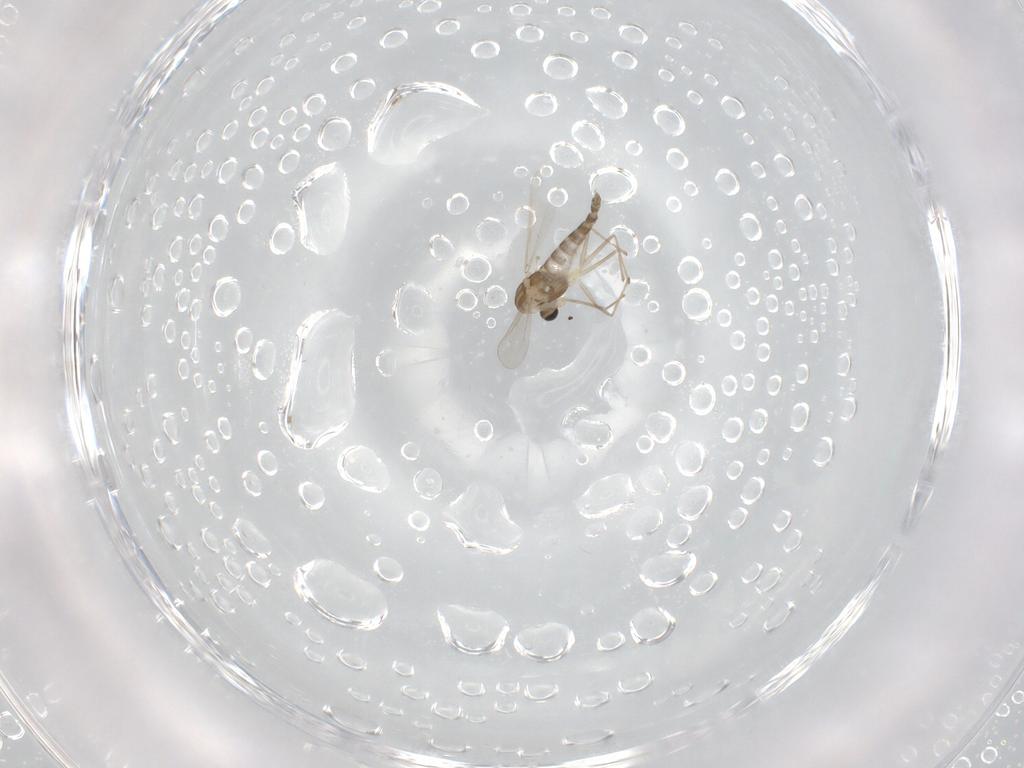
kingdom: Animalia
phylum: Arthropoda
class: Insecta
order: Diptera
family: Chironomidae
